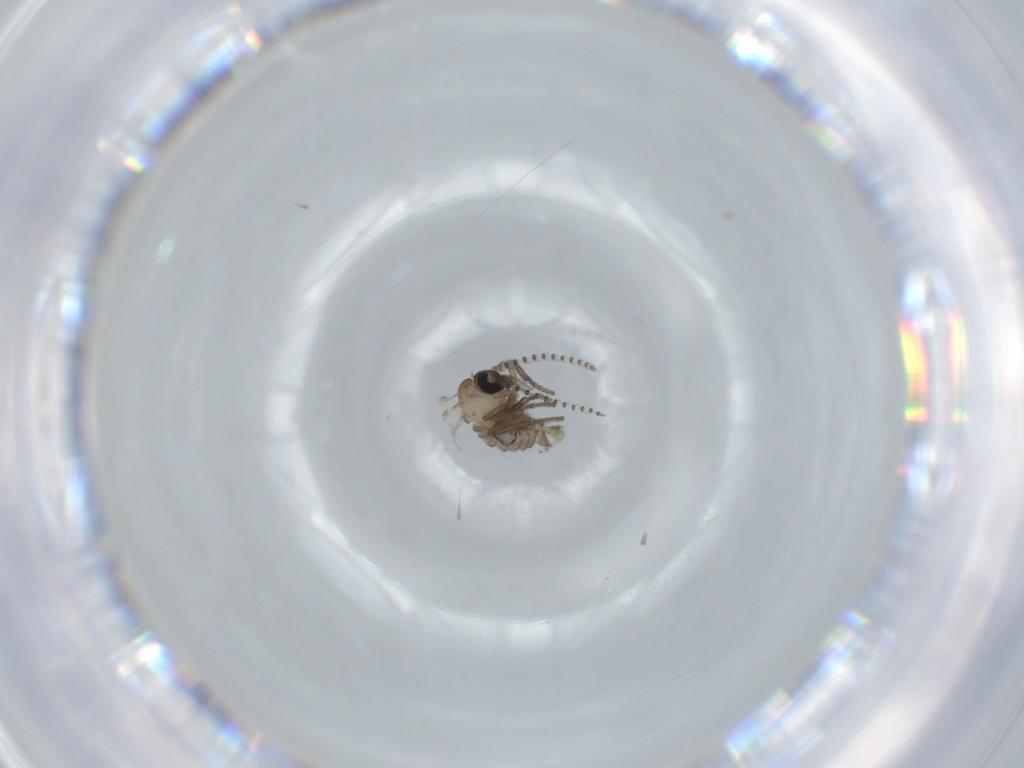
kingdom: Animalia
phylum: Arthropoda
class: Insecta
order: Diptera
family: Psychodidae
